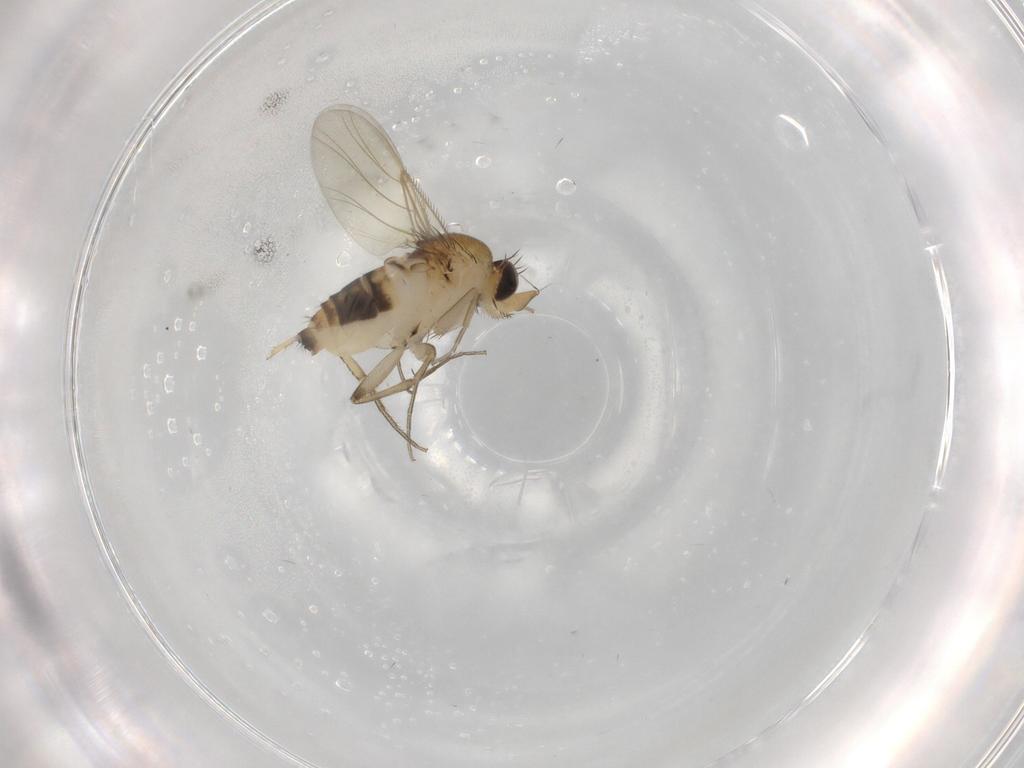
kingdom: Animalia
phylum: Arthropoda
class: Insecta
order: Diptera
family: Phoridae
